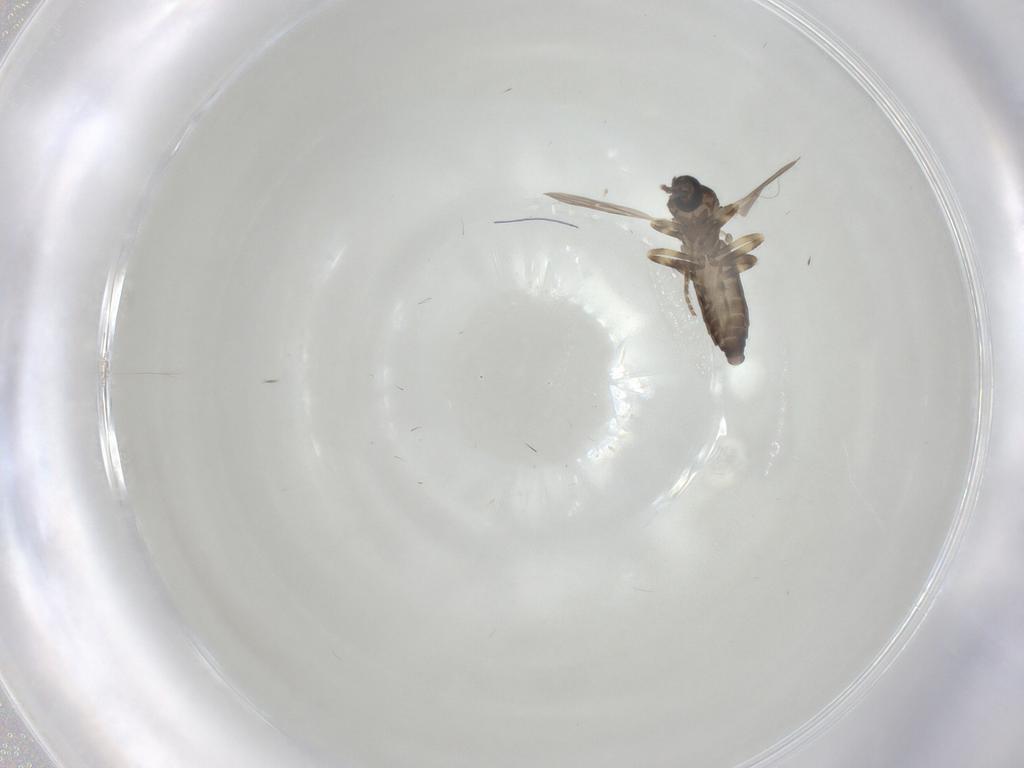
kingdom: Animalia
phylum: Arthropoda
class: Insecta
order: Diptera
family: Ceratopogonidae
